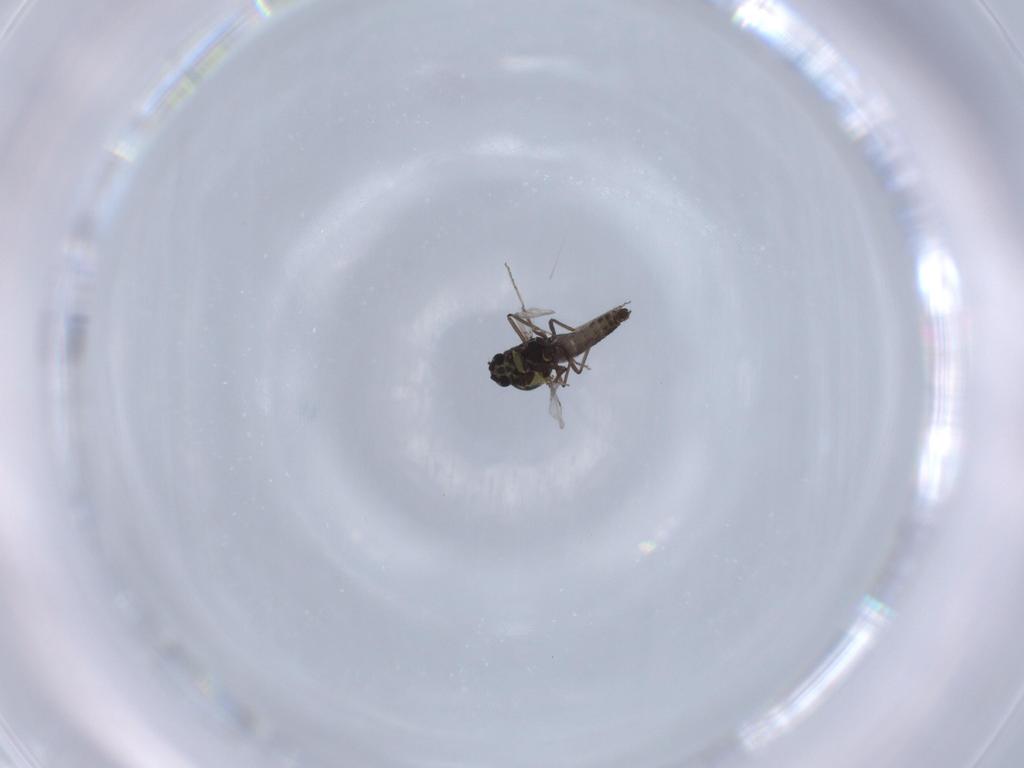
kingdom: Animalia
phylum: Arthropoda
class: Insecta
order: Diptera
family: Ceratopogonidae
